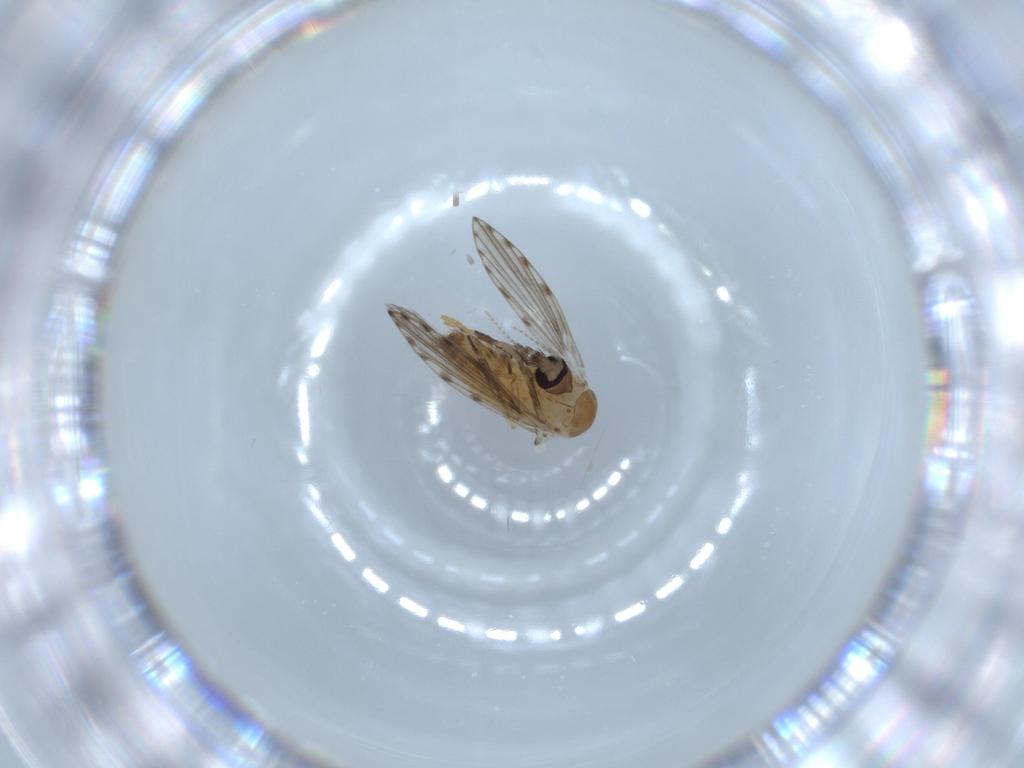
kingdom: Animalia
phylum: Arthropoda
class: Insecta
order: Diptera
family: Psychodidae
